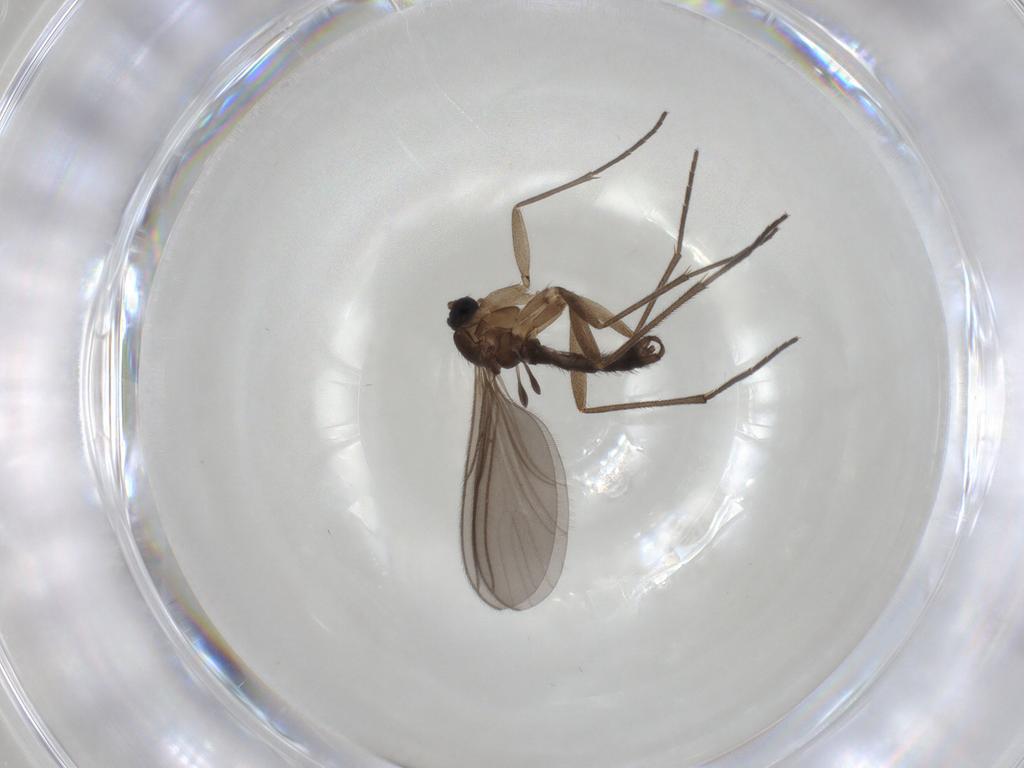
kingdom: Animalia
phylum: Arthropoda
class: Insecta
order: Diptera
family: Sciaridae
